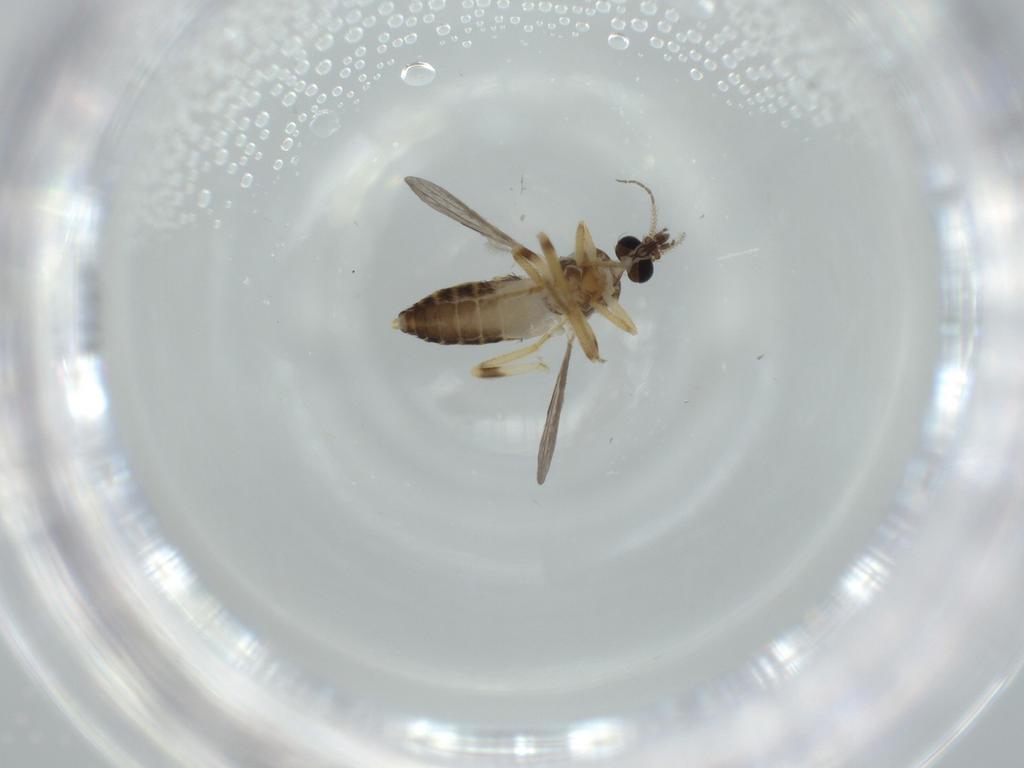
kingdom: Animalia
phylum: Arthropoda
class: Insecta
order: Diptera
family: Ceratopogonidae
